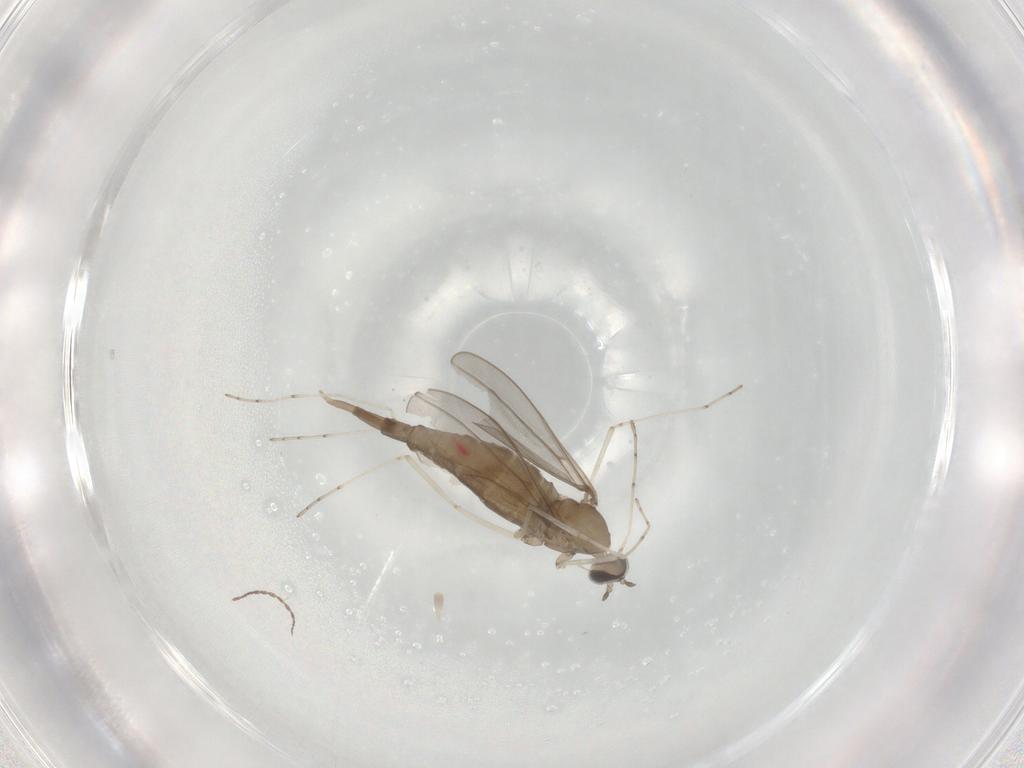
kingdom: Animalia
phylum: Arthropoda
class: Insecta
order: Diptera
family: Cecidomyiidae
